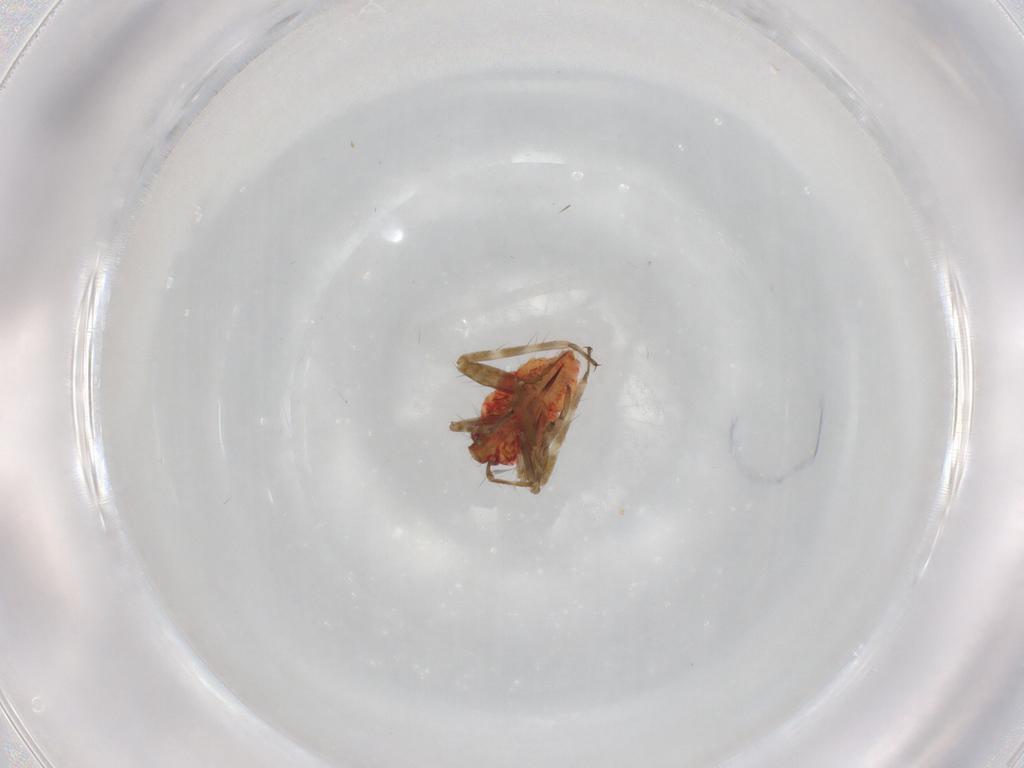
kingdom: Animalia
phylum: Arthropoda
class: Insecta
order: Hemiptera
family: Miridae
